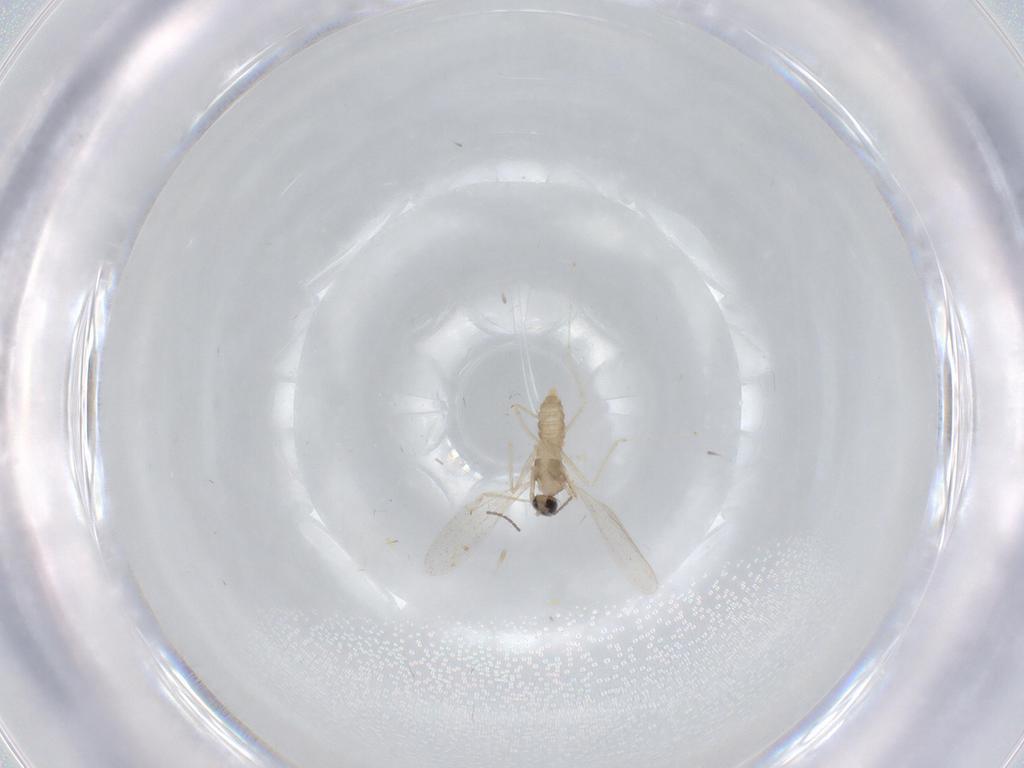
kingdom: Animalia
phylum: Arthropoda
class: Insecta
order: Diptera
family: Cecidomyiidae
